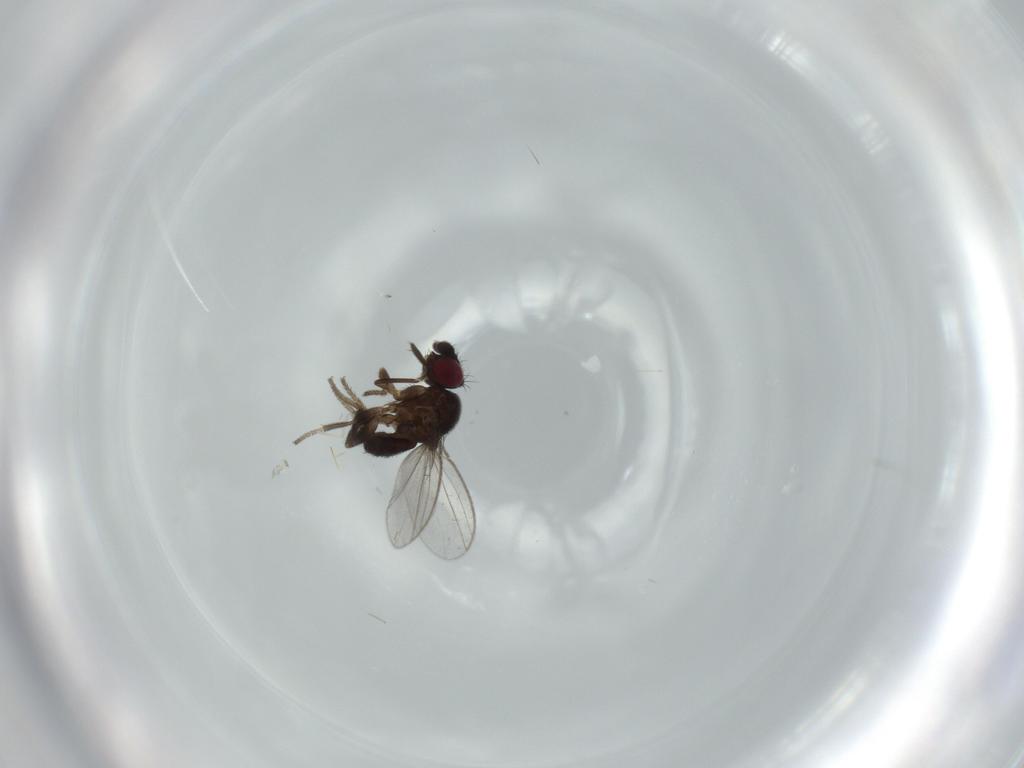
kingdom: Animalia
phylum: Arthropoda
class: Insecta
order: Diptera
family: Milichiidae
